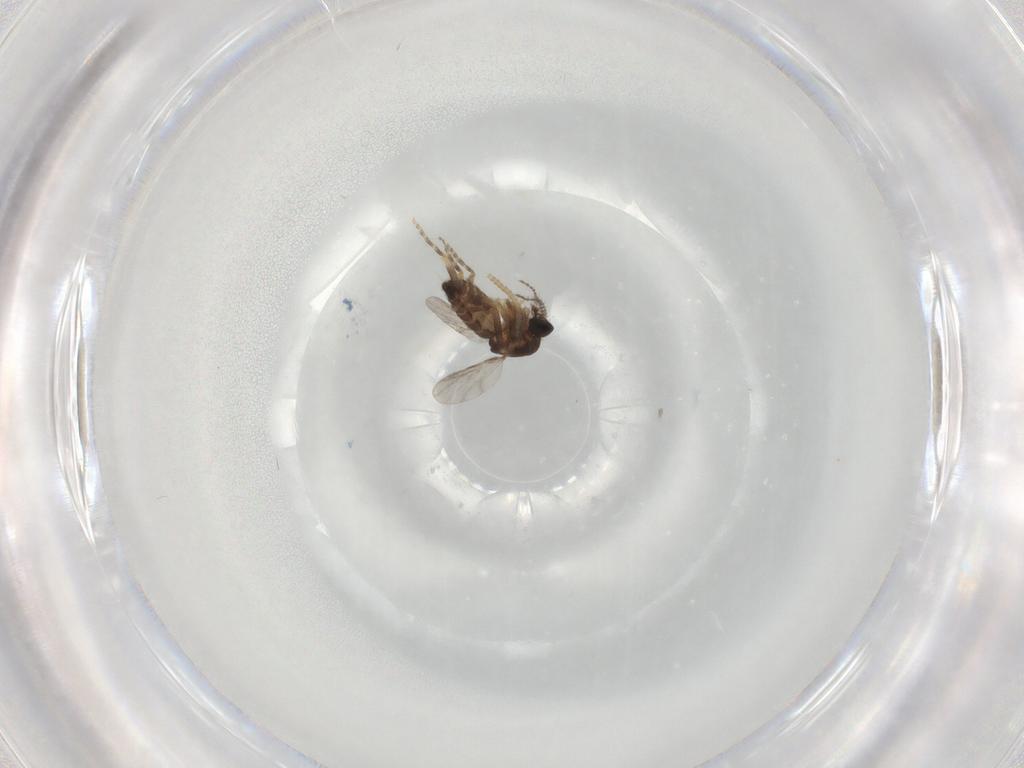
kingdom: Animalia
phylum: Arthropoda
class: Insecta
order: Diptera
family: Ceratopogonidae
